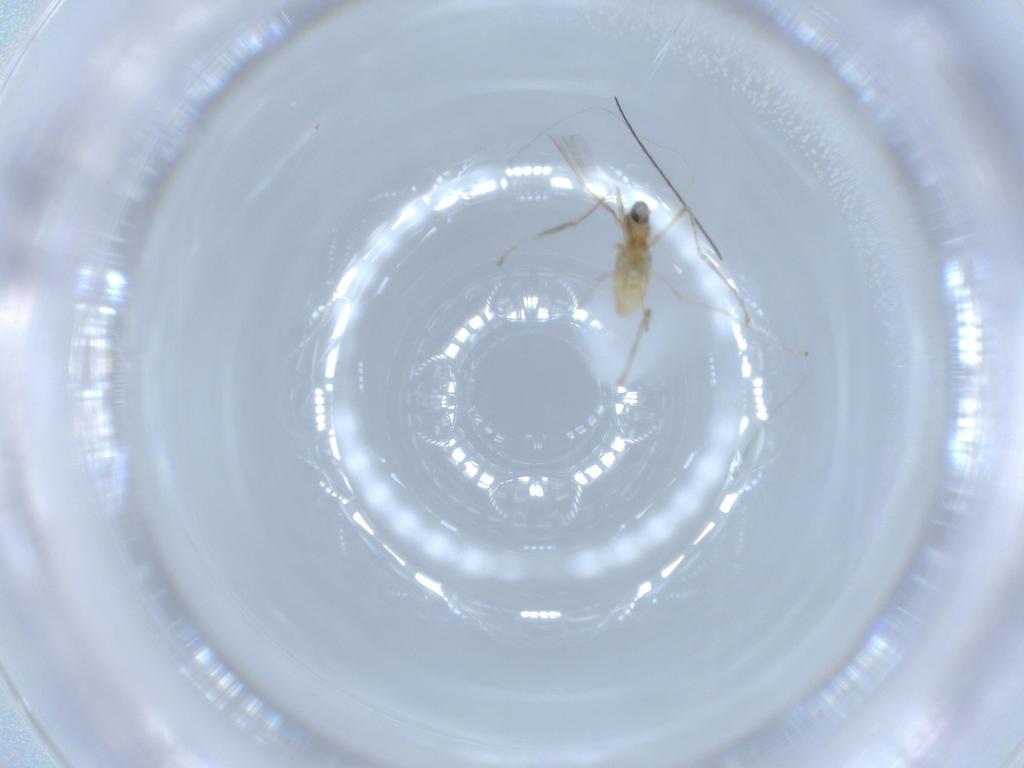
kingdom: Animalia
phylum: Arthropoda
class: Insecta
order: Diptera
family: Cecidomyiidae
